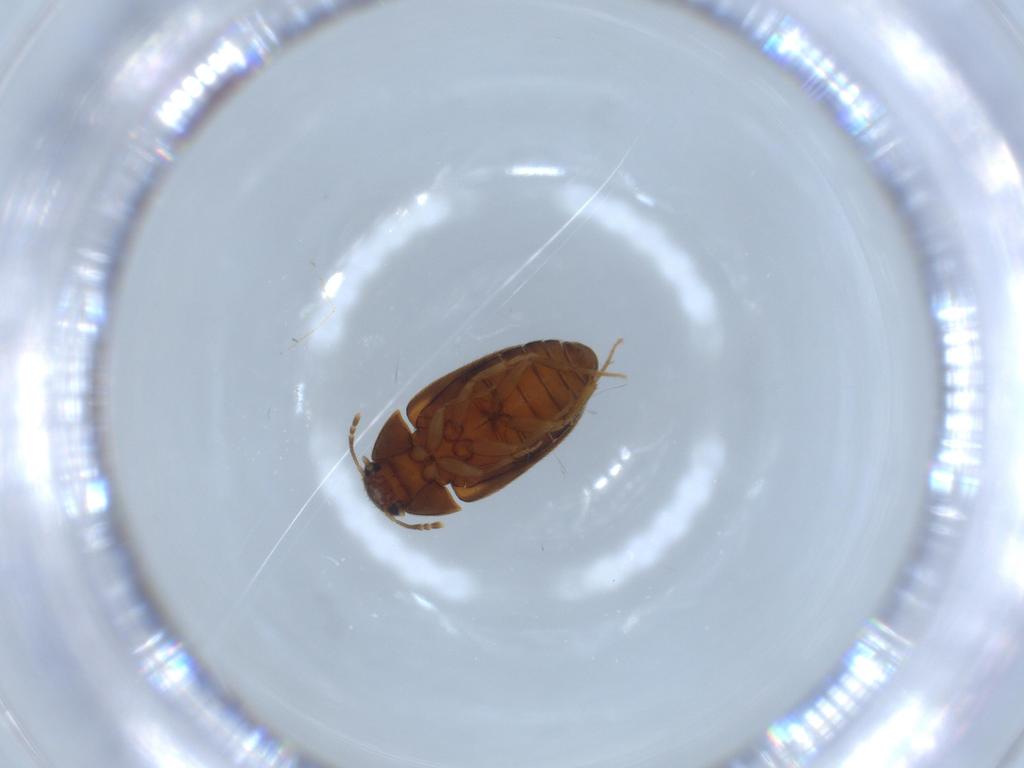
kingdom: Animalia
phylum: Arthropoda
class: Insecta
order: Coleoptera
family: Mycetophagidae
